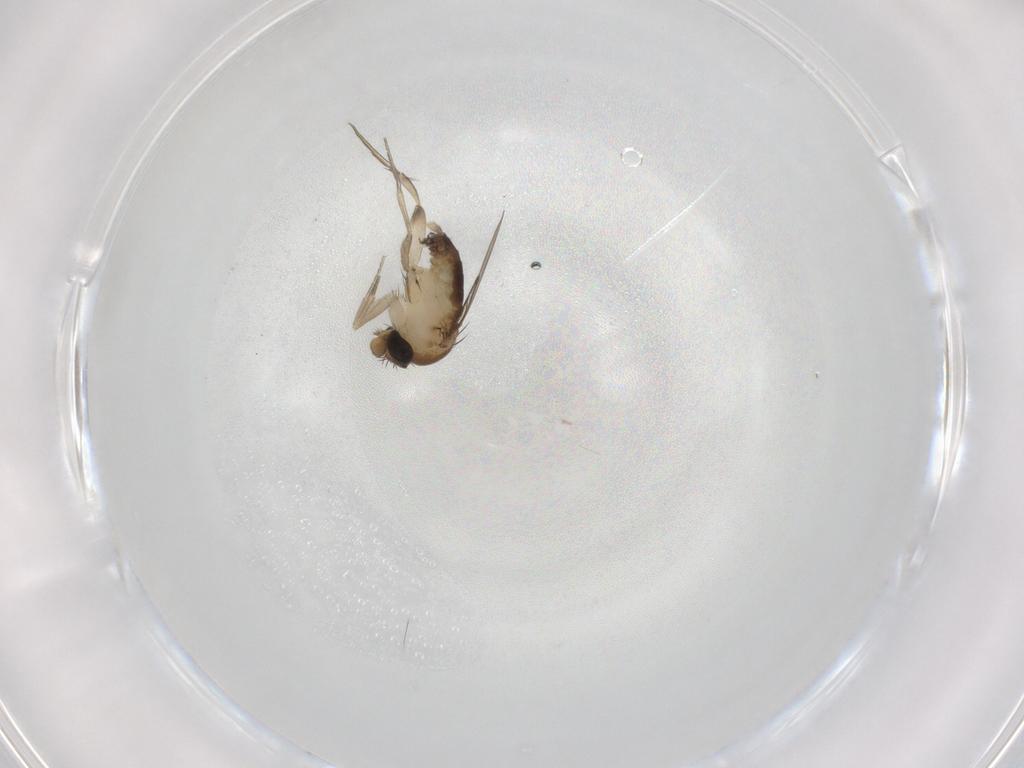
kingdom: Animalia
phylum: Arthropoda
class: Insecta
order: Diptera
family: Phoridae
